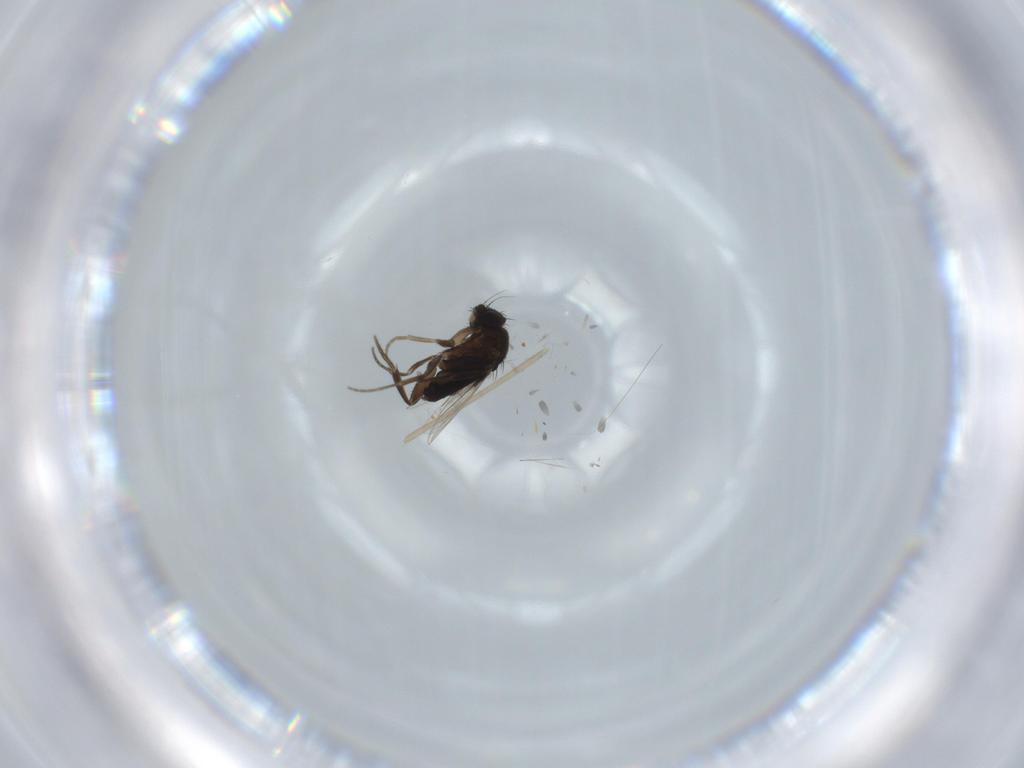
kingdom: Animalia
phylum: Arthropoda
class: Insecta
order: Diptera
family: Phoridae
